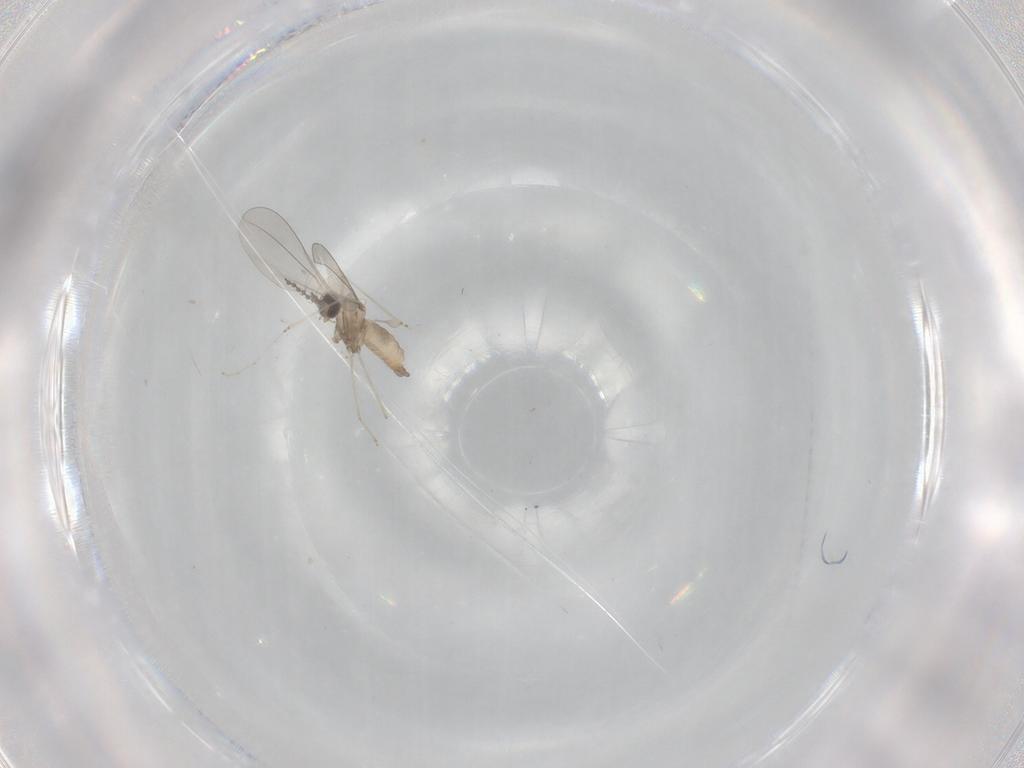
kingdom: Animalia
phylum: Arthropoda
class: Insecta
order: Diptera
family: Cecidomyiidae
